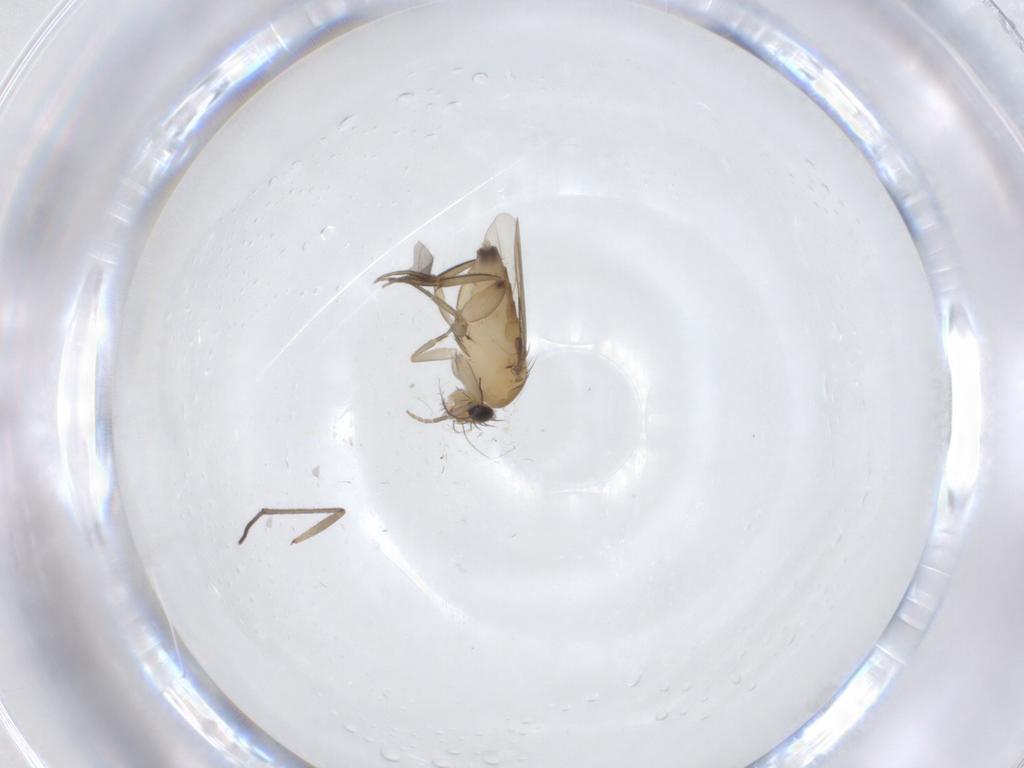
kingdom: Animalia
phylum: Arthropoda
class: Insecta
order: Diptera
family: Phoridae
